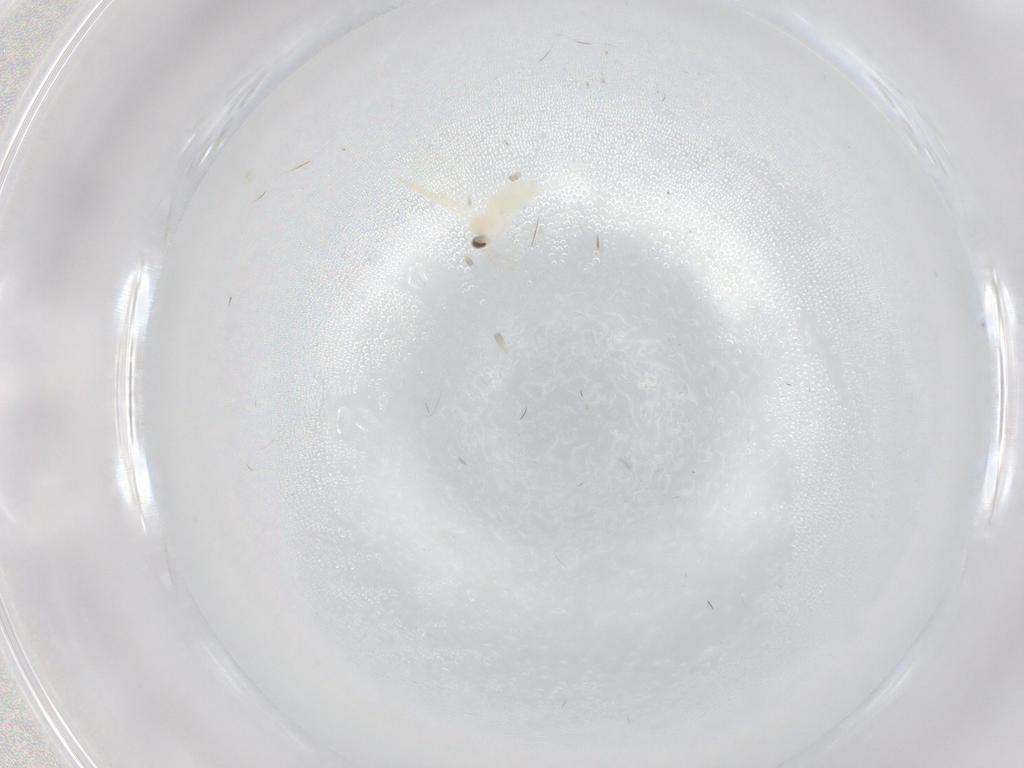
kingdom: Animalia
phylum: Arthropoda
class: Insecta
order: Diptera
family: Cecidomyiidae
